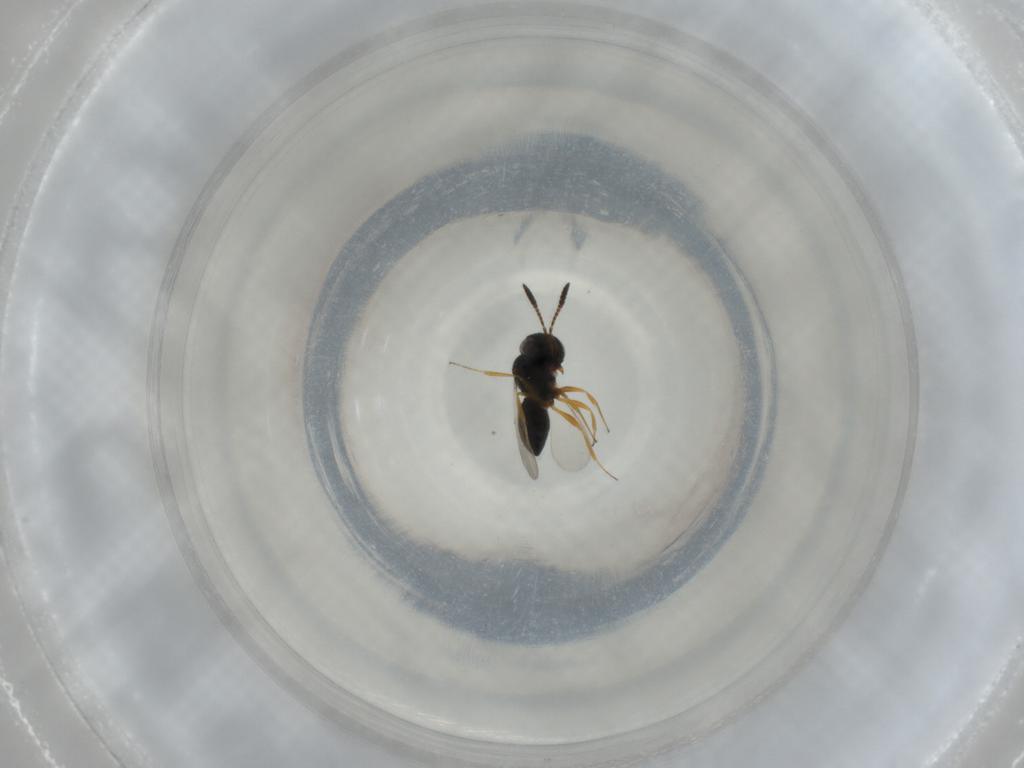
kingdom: Animalia
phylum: Arthropoda
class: Insecta
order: Hymenoptera
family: Scelionidae
